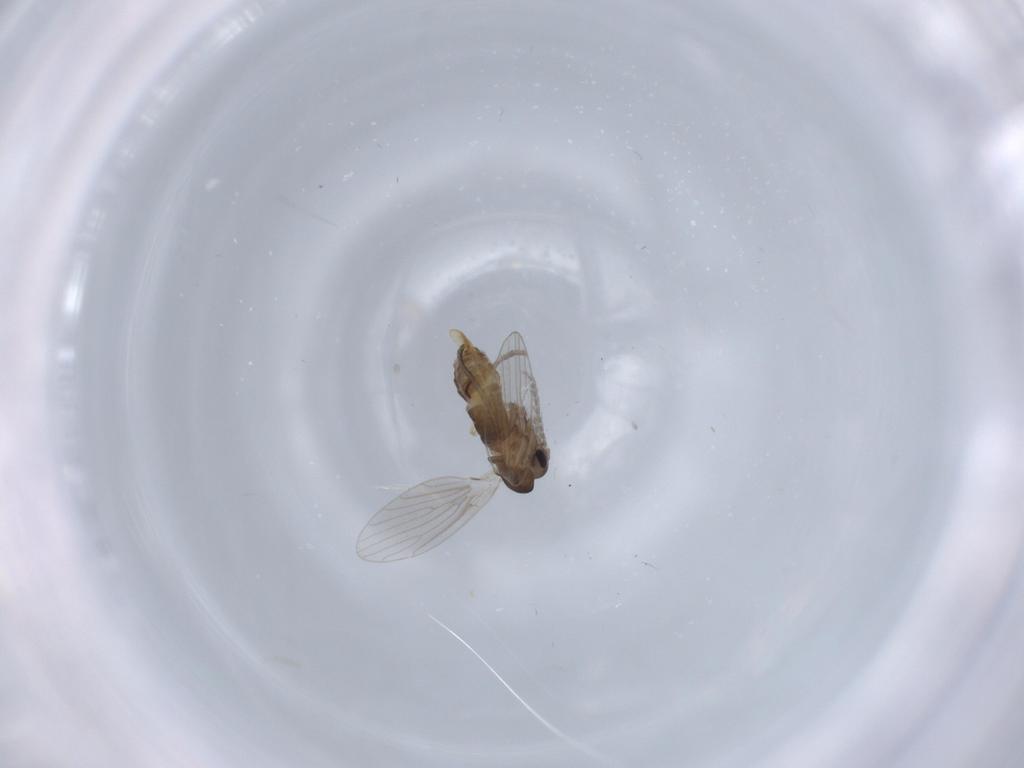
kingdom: Animalia
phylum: Arthropoda
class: Insecta
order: Diptera
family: Psychodidae
